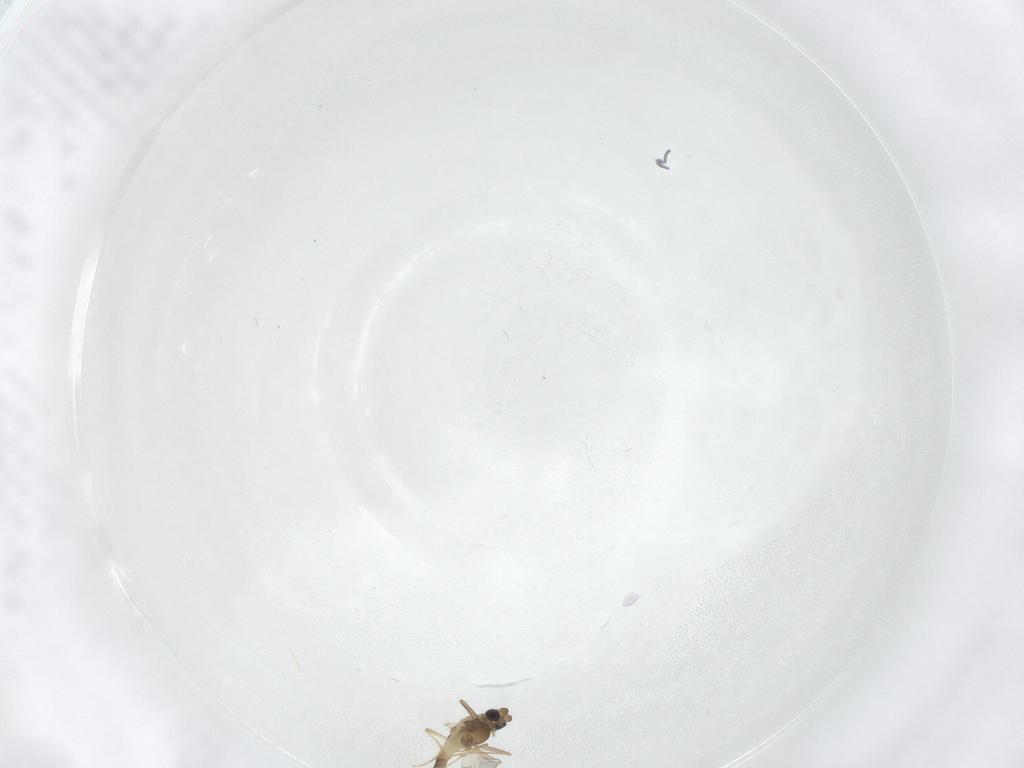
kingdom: Animalia
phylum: Arthropoda
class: Insecta
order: Diptera
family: Chironomidae
